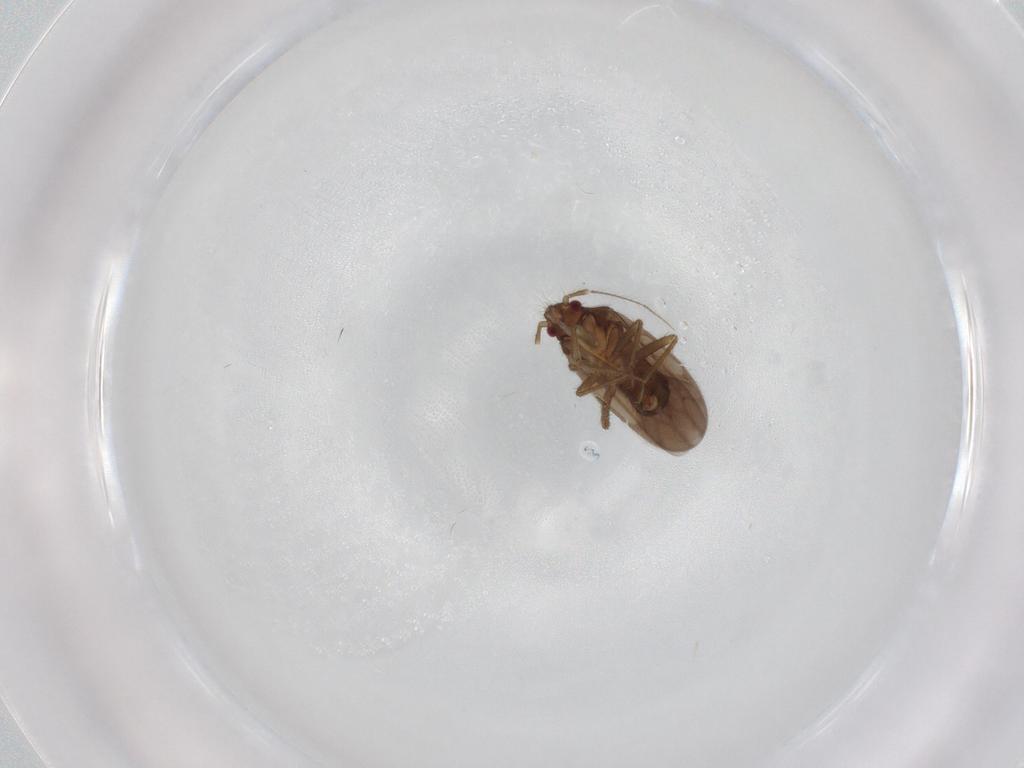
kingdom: Animalia
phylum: Arthropoda
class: Insecta
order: Hemiptera
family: Ceratocombidae
